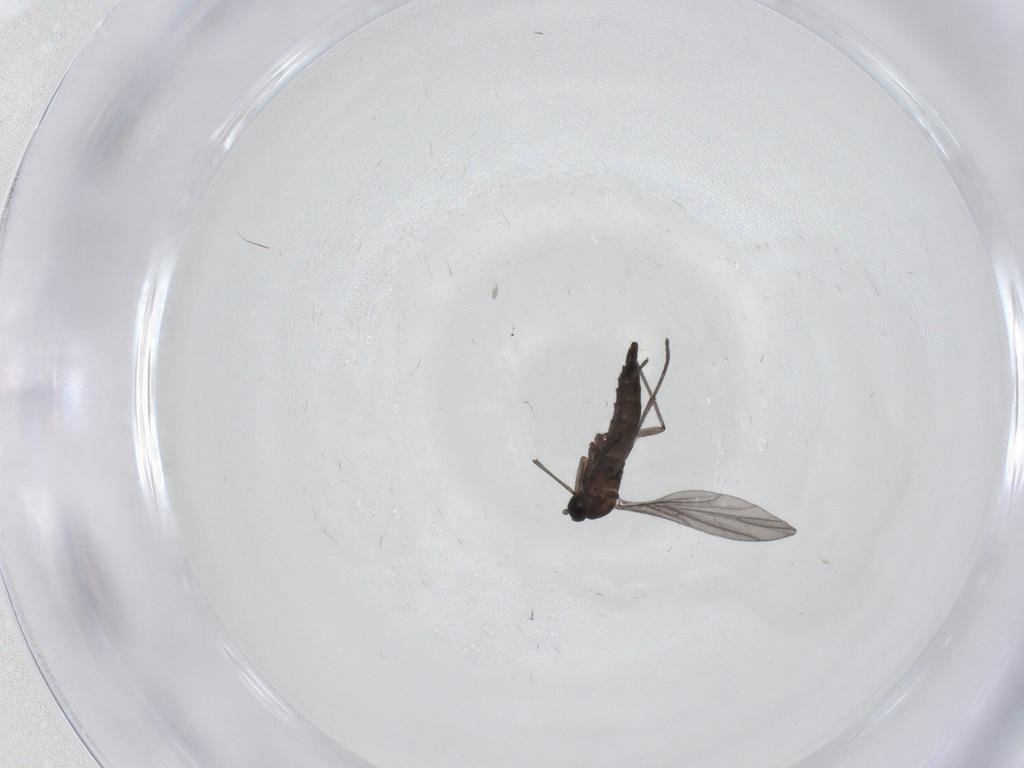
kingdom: Animalia
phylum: Arthropoda
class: Insecta
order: Diptera
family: Sciaridae
